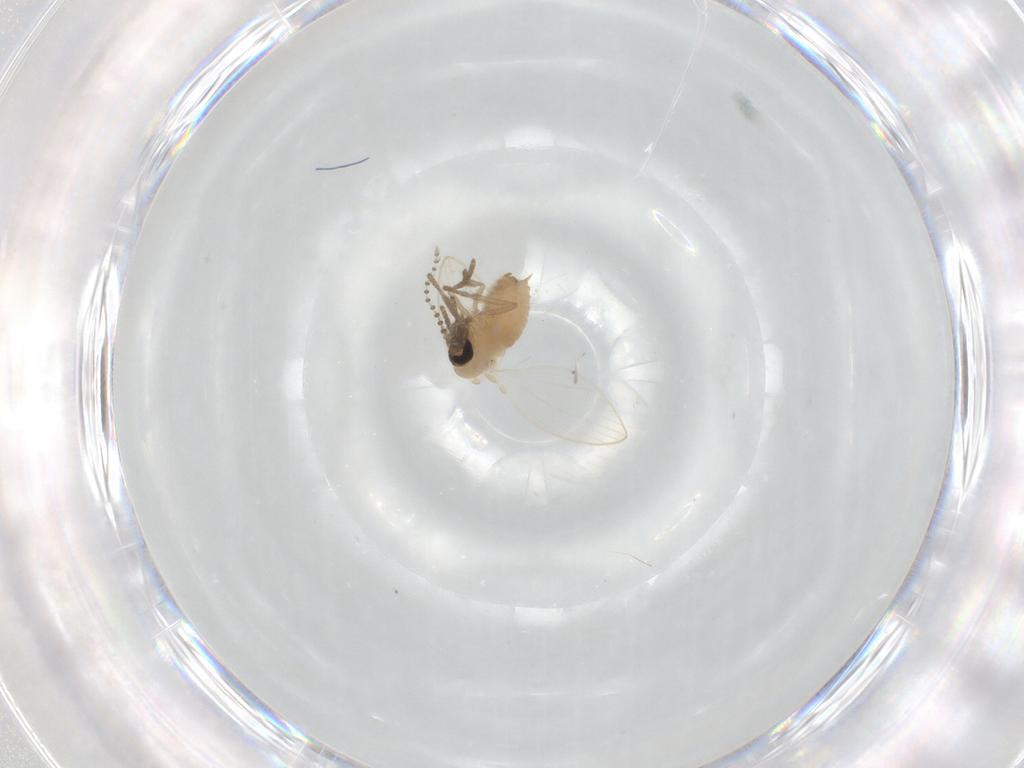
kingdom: Animalia
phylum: Arthropoda
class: Insecta
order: Diptera
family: Psychodidae
